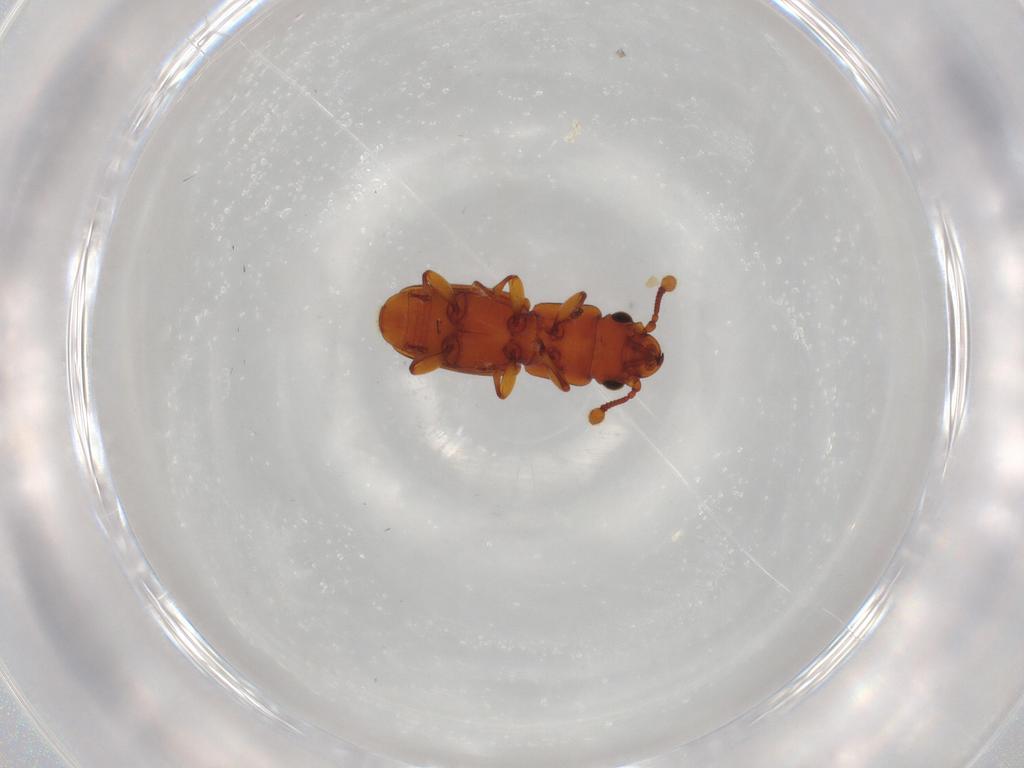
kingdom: Animalia
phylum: Arthropoda
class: Insecta
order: Coleoptera
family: Monotomidae
